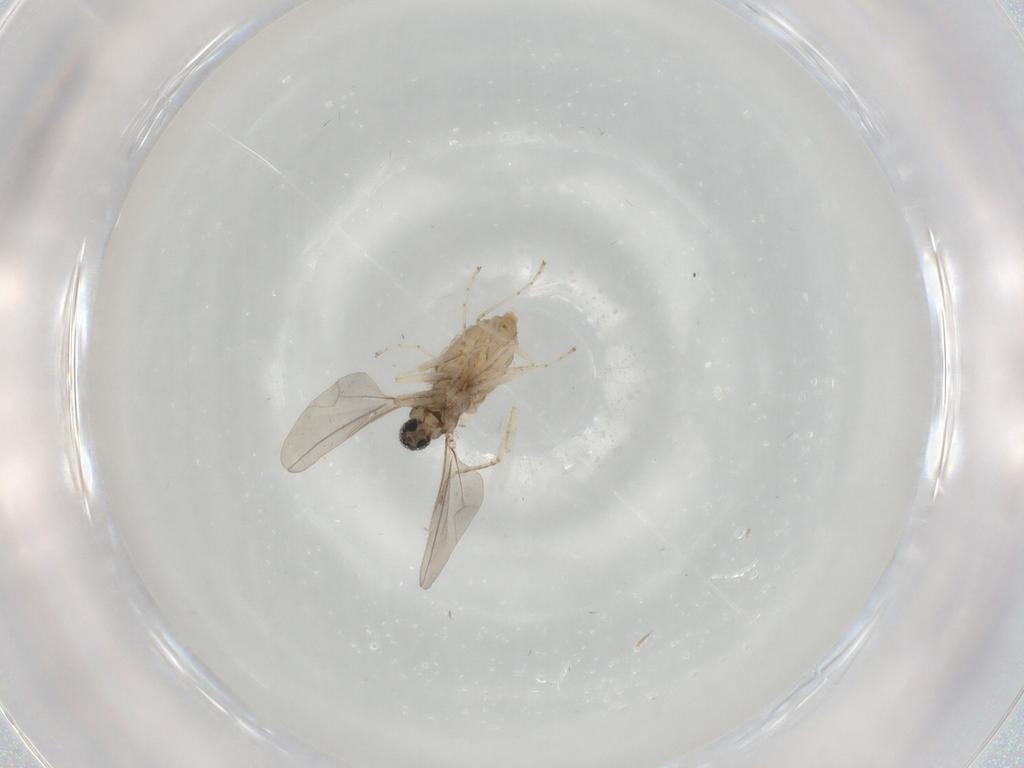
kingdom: Animalia
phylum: Arthropoda
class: Insecta
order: Diptera
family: Cecidomyiidae
